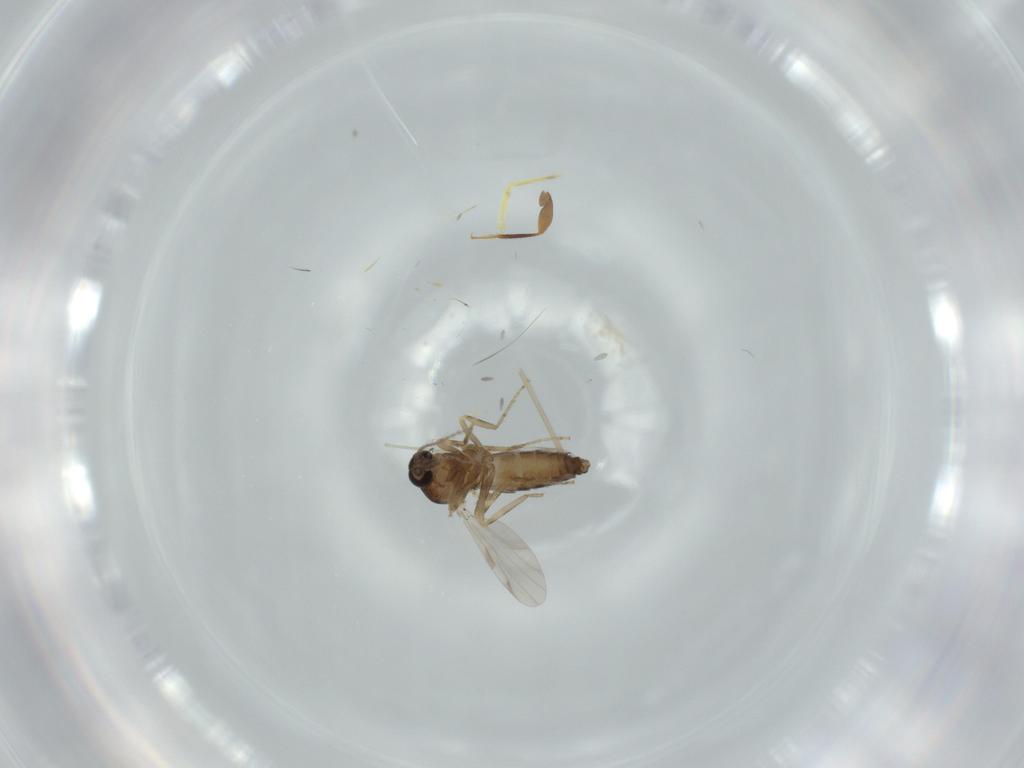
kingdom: Animalia
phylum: Arthropoda
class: Insecta
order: Diptera
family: Ceratopogonidae
